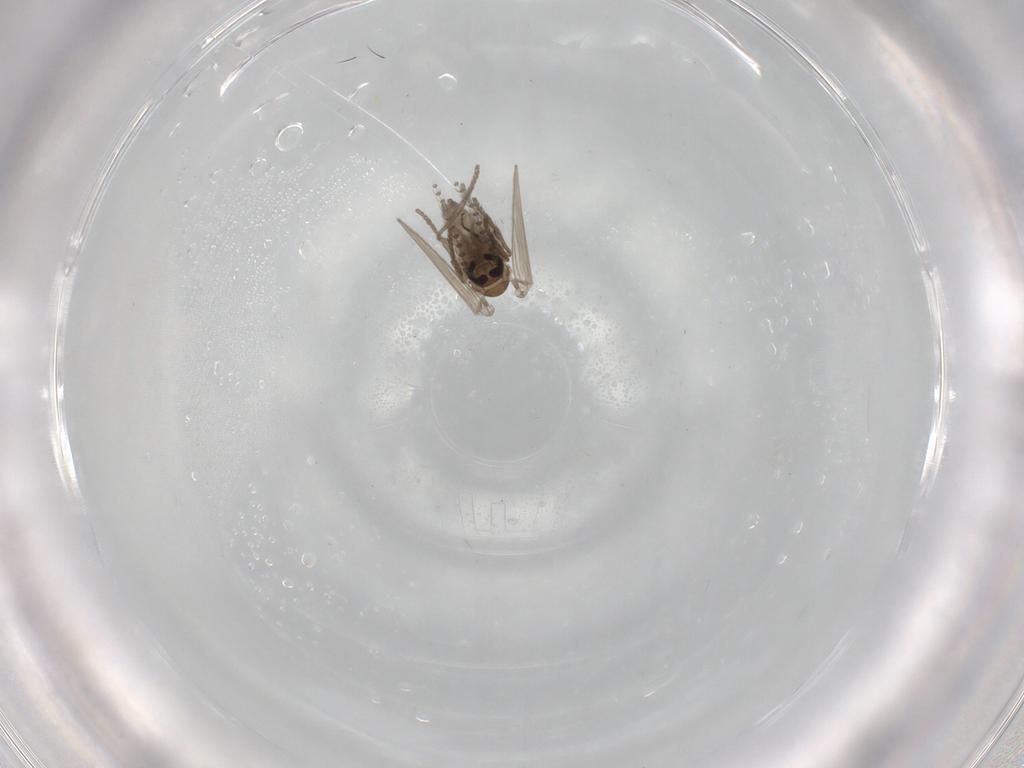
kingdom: Animalia
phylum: Arthropoda
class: Insecta
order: Diptera
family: Psychodidae
